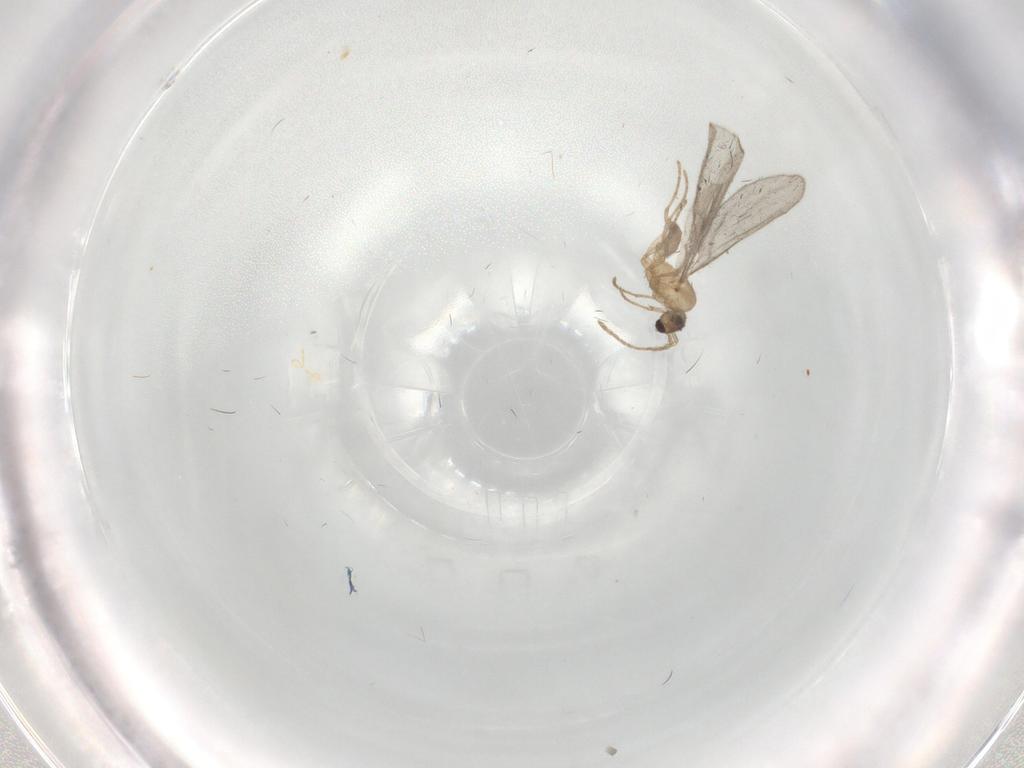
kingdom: Animalia
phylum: Arthropoda
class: Insecta
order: Hymenoptera
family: Formicidae
